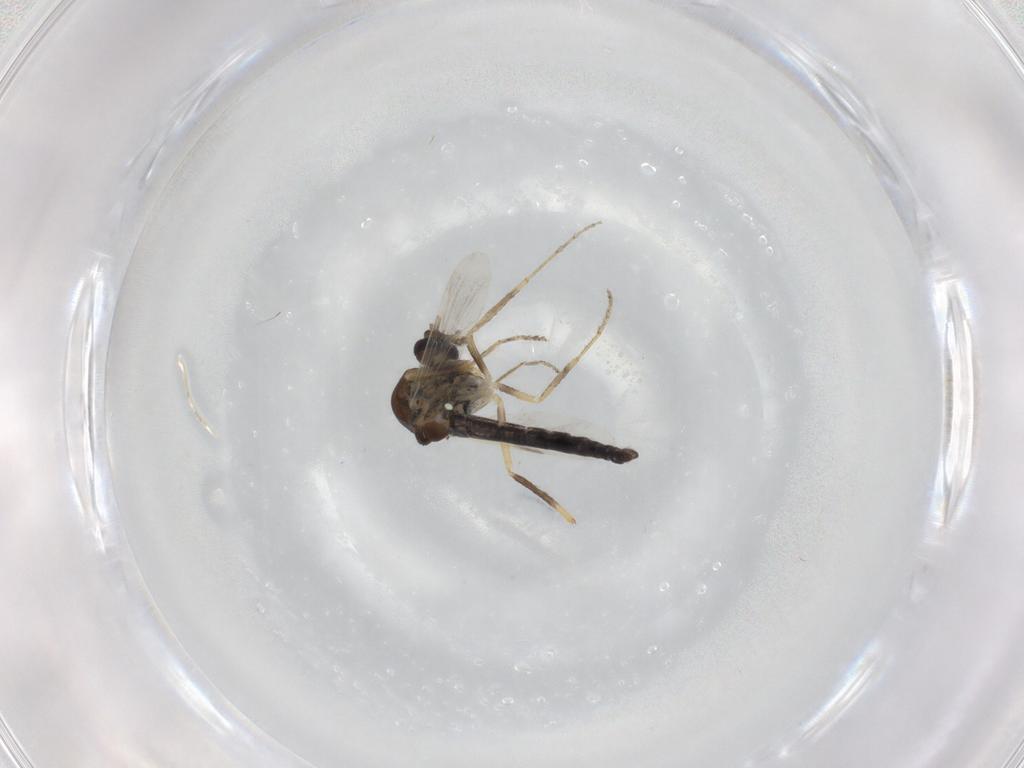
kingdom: Animalia
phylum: Arthropoda
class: Insecta
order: Diptera
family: Ceratopogonidae
